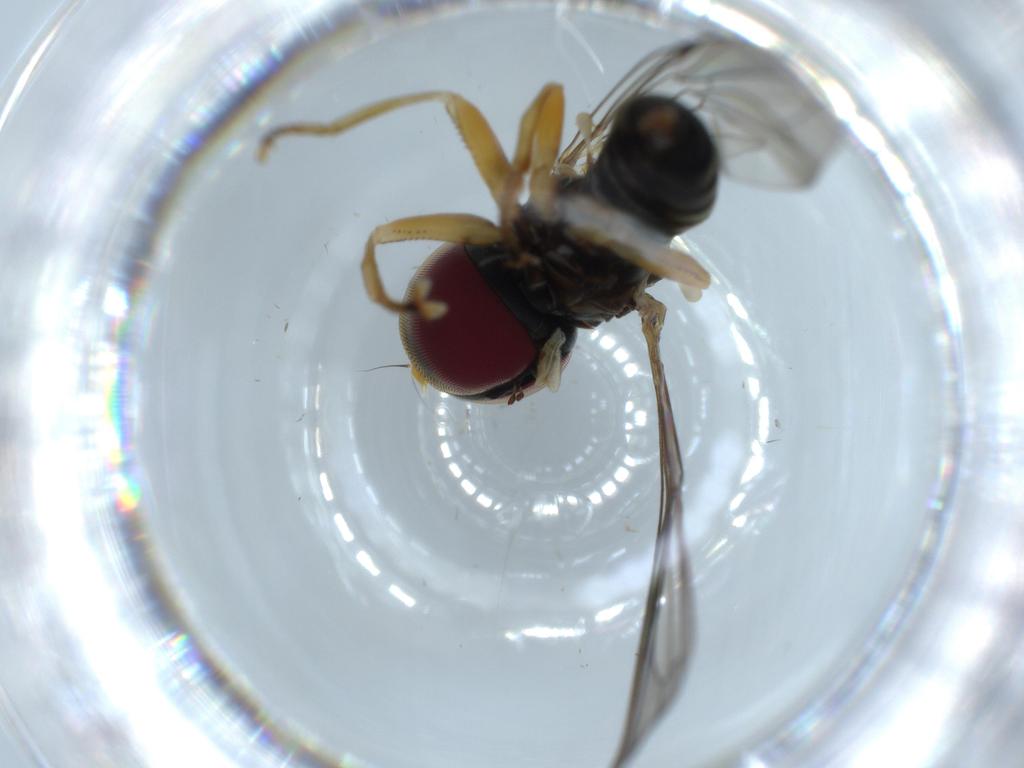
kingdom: Animalia
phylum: Arthropoda
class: Insecta
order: Diptera
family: Pipunculidae
